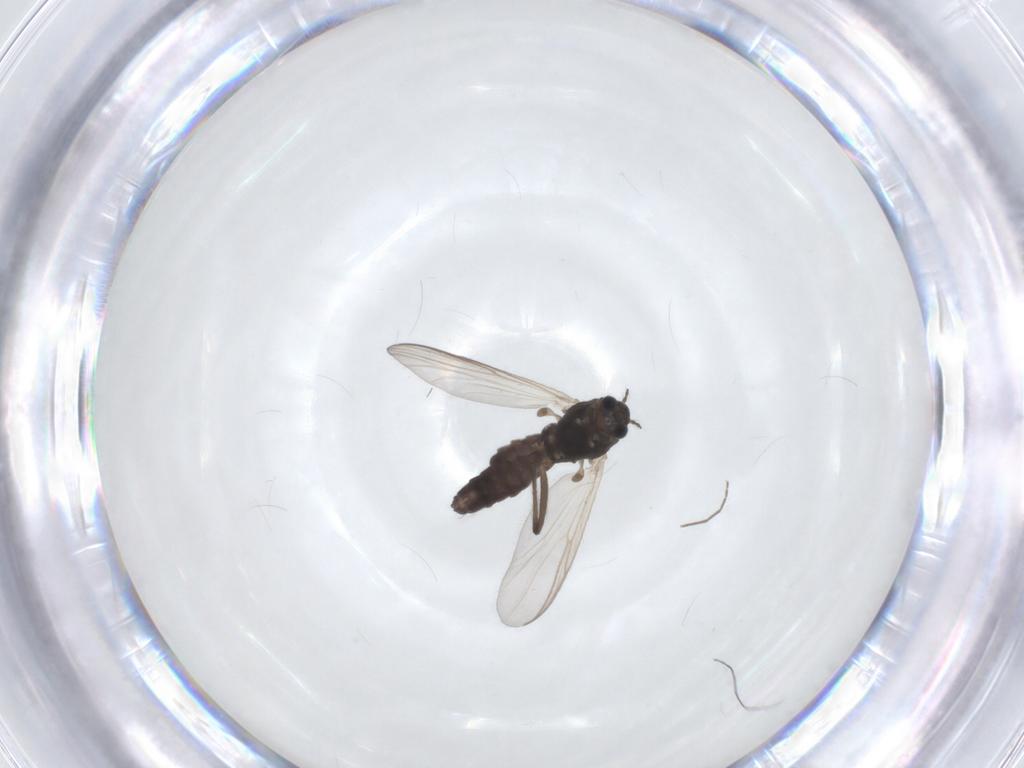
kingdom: Animalia
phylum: Arthropoda
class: Insecta
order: Diptera
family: Chironomidae
